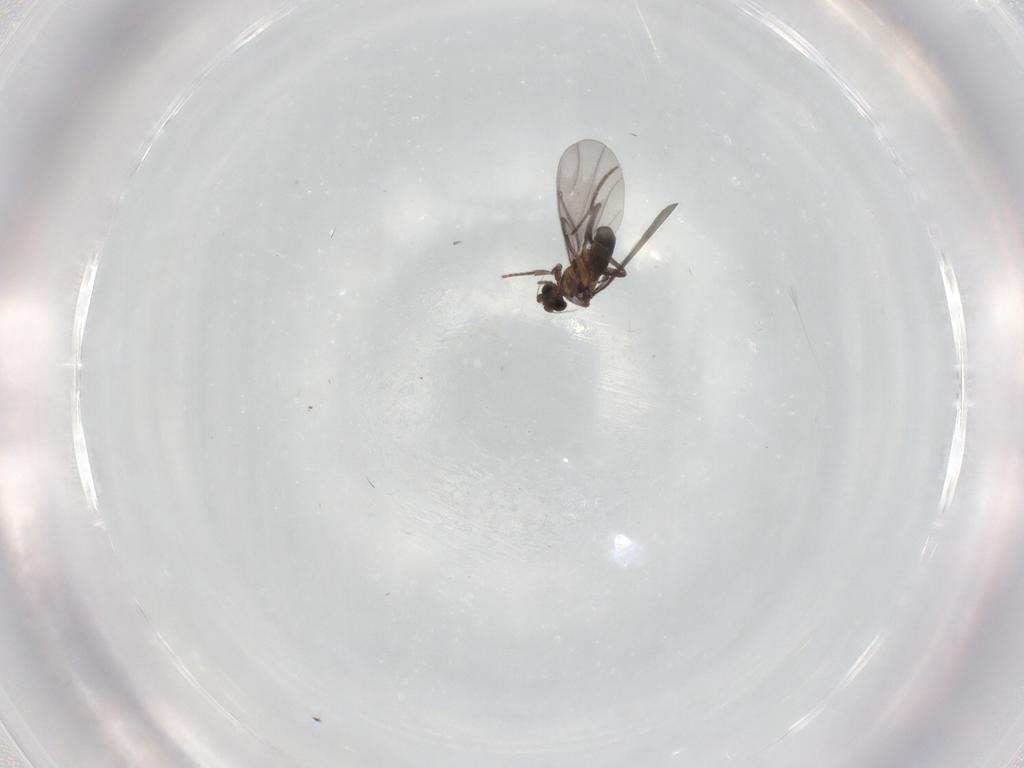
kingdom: Animalia
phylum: Arthropoda
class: Insecta
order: Diptera
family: Phoridae
